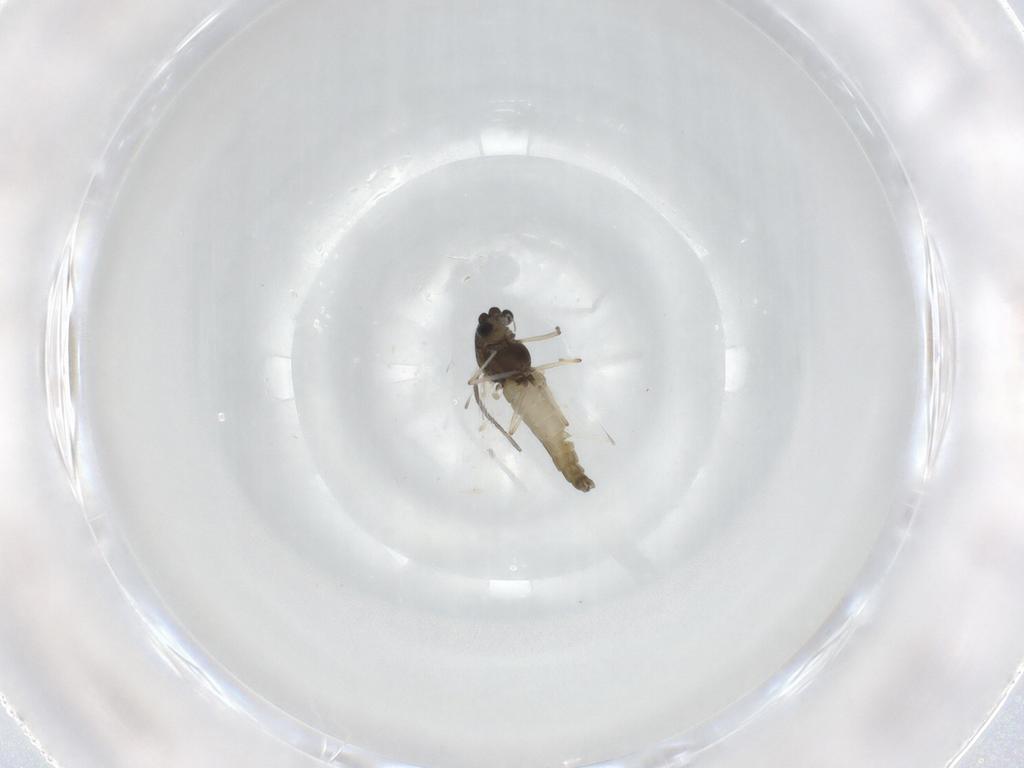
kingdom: Animalia
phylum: Arthropoda
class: Insecta
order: Diptera
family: Chironomidae
